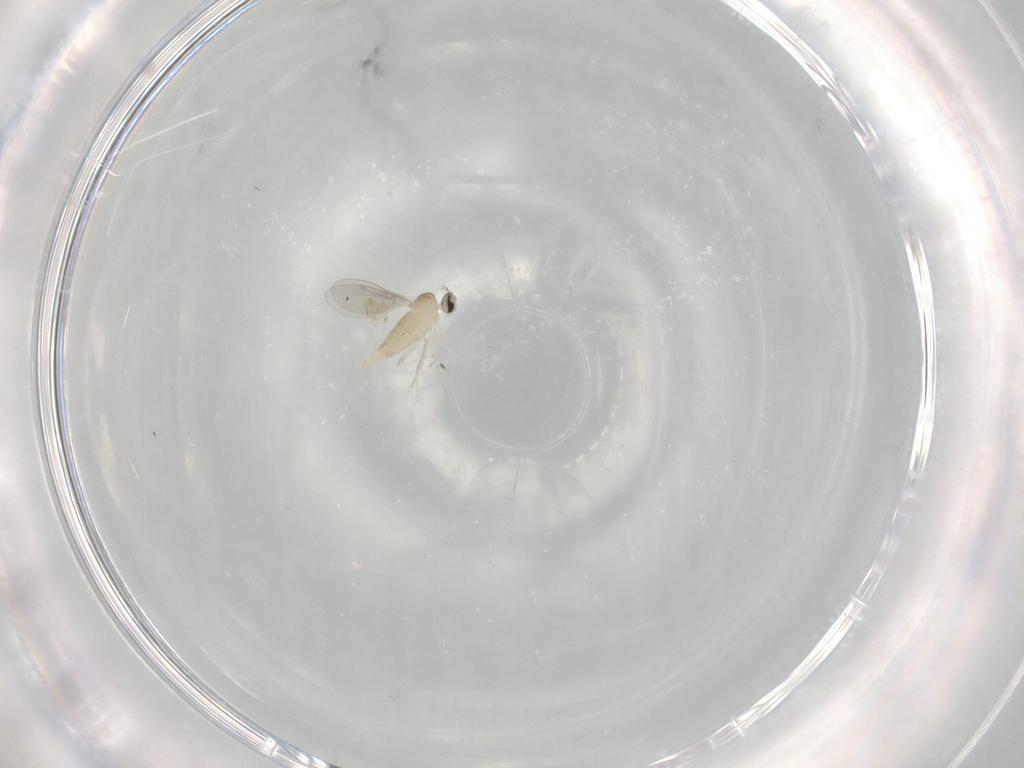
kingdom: Animalia
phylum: Arthropoda
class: Insecta
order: Diptera
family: Cecidomyiidae
